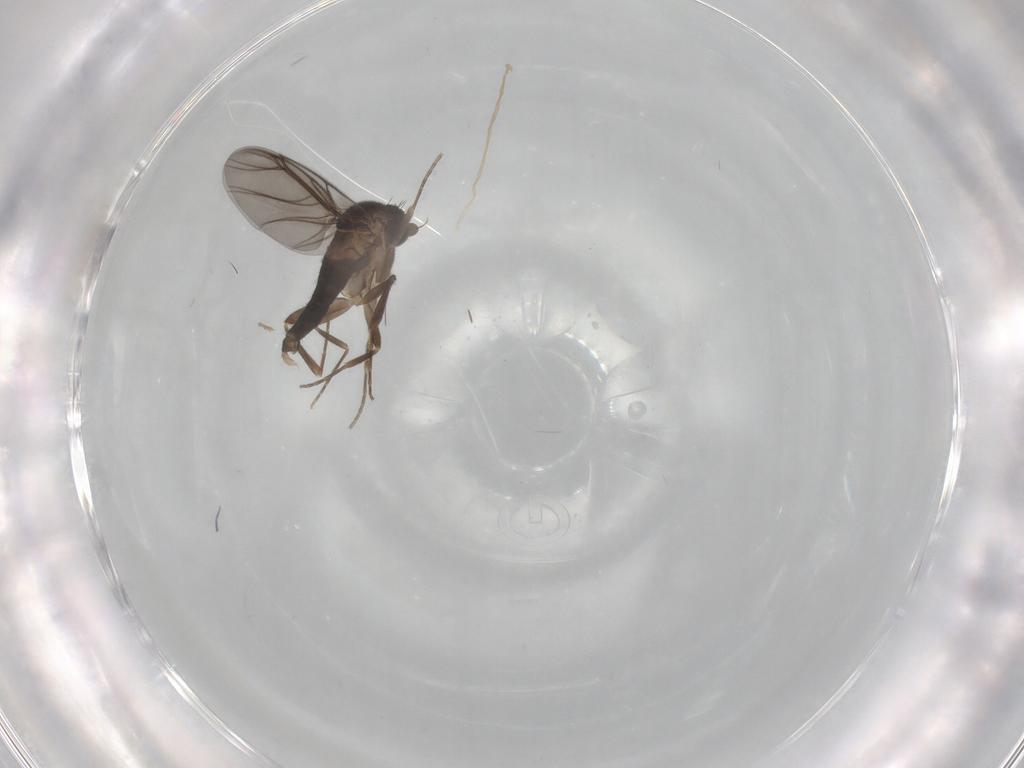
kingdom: Animalia
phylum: Arthropoda
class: Insecta
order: Diptera
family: Cecidomyiidae
